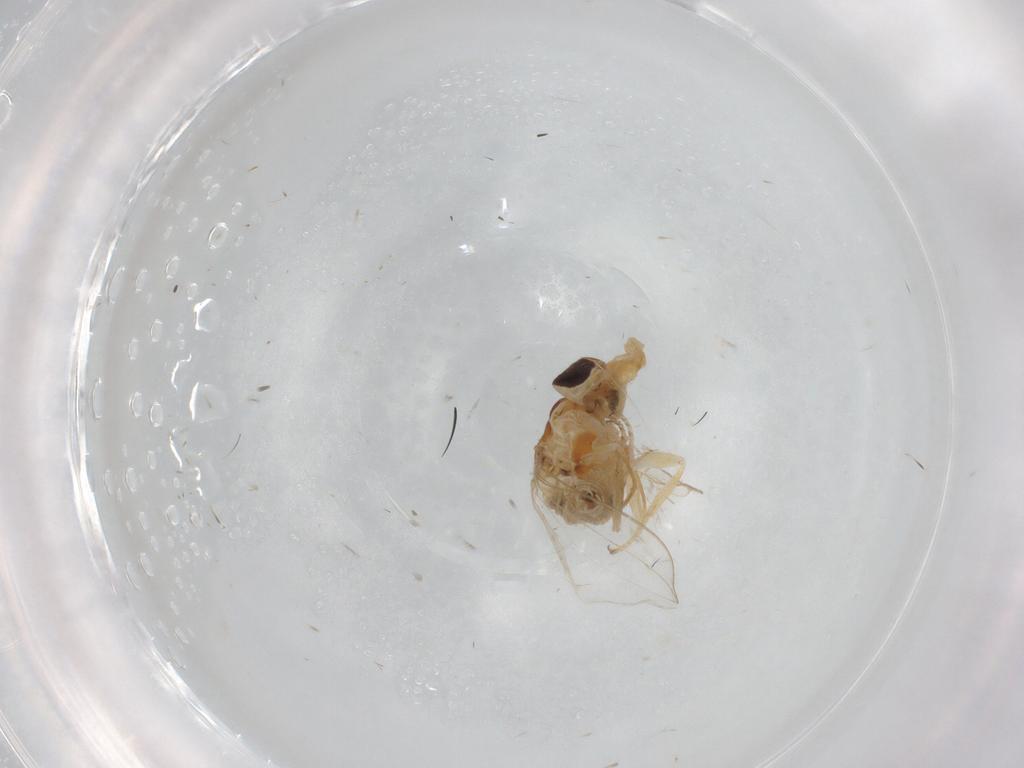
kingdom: Animalia
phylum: Arthropoda
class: Insecta
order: Diptera
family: Asteiidae
